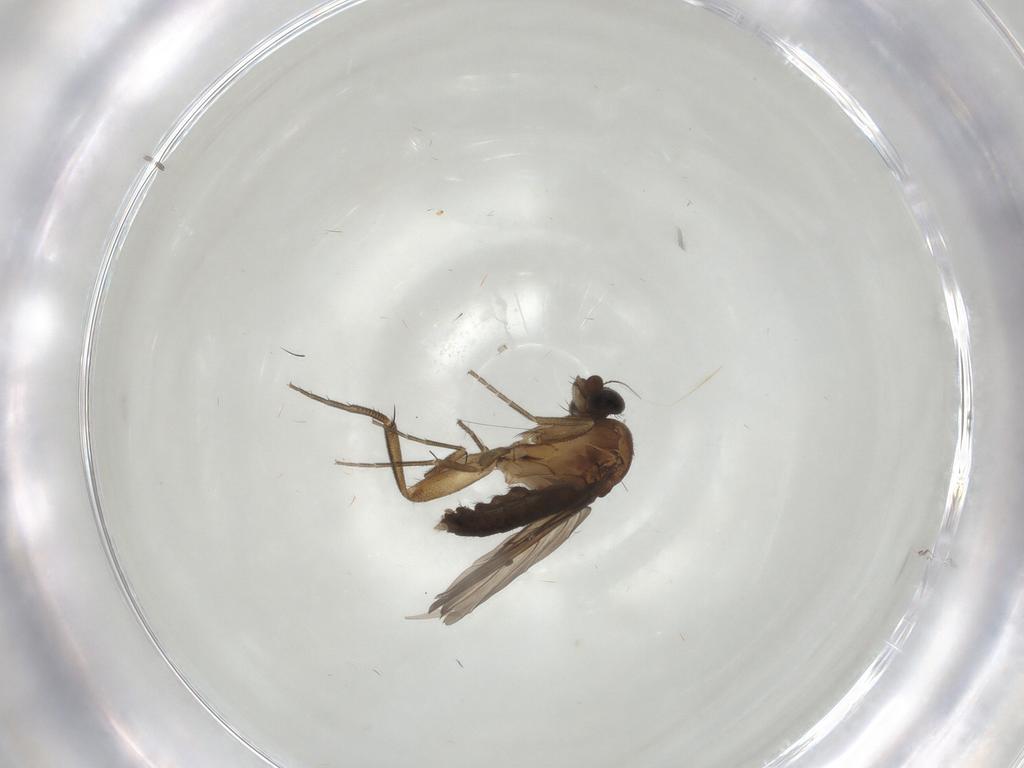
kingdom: Animalia
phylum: Arthropoda
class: Insecta
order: Diptera
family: Phoridae
